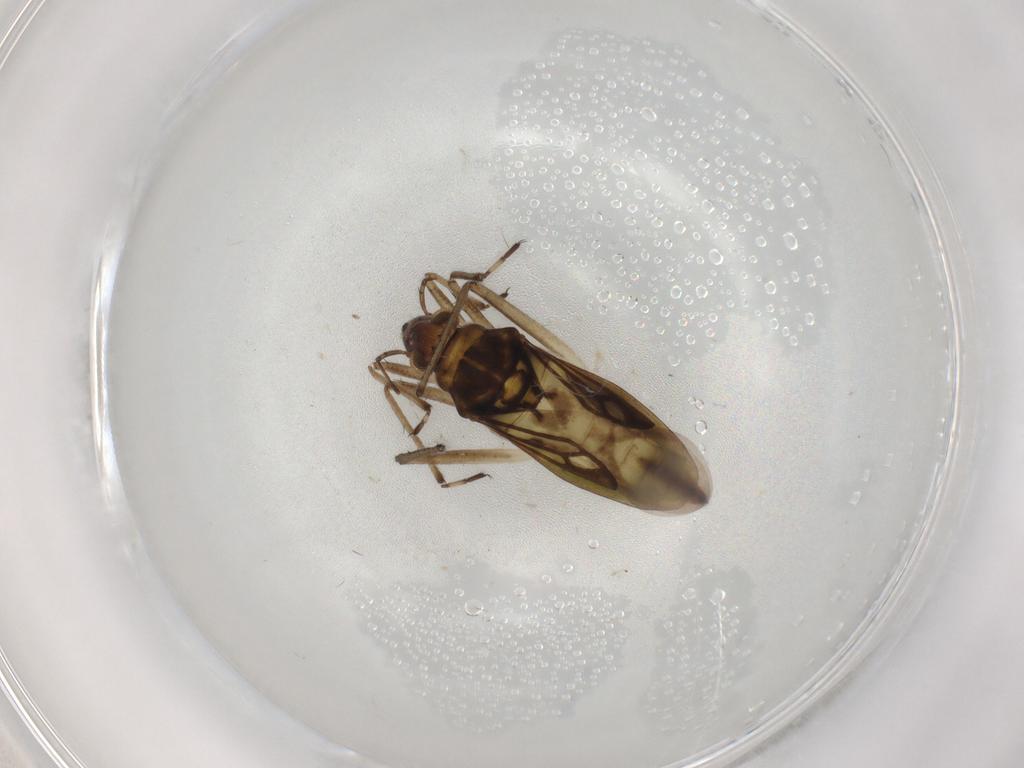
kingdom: Animalia
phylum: Arthropoda
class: Insecta
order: Hemiptera
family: Mesoveliidae
